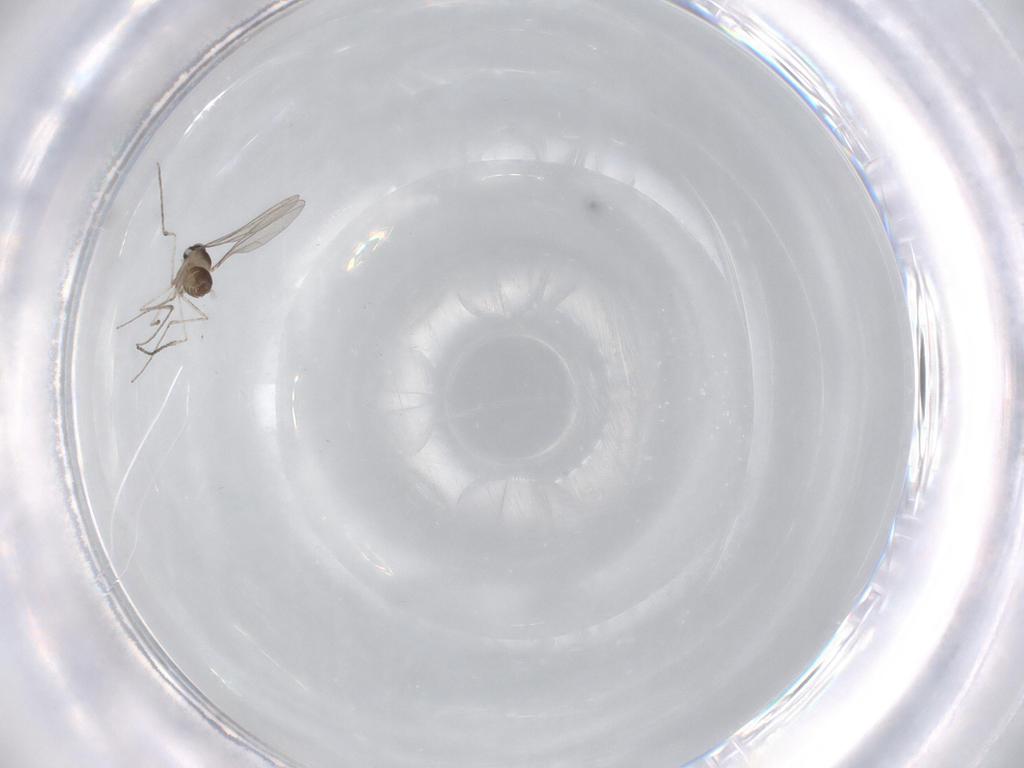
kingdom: Animalia
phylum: Arthropoda
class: Insecta
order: Diptera
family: Cecidomyiidae
